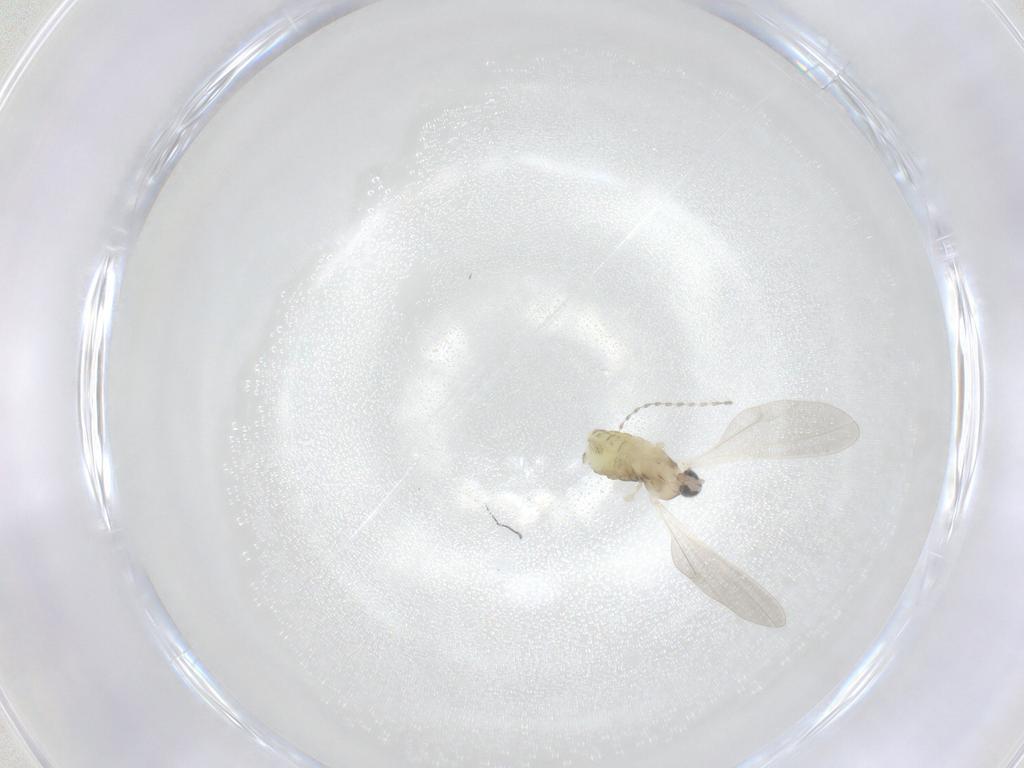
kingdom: Animalia
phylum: Arthropoda
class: Insecta
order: Diptera
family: Cecidomyiidae
